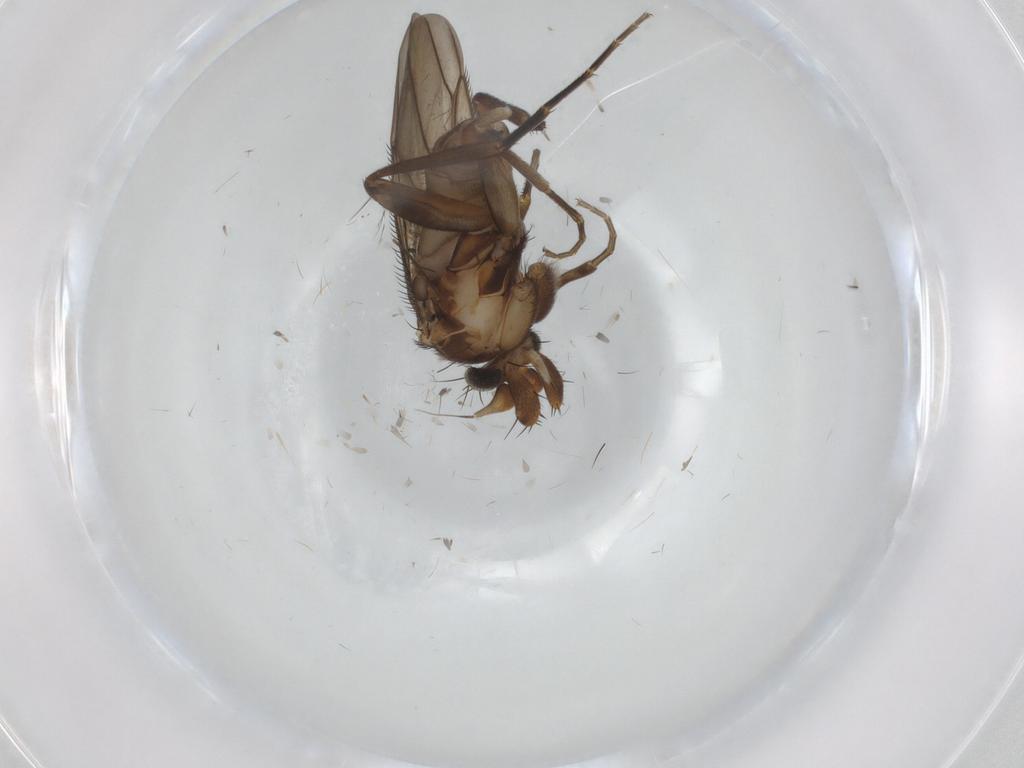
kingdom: Animalia
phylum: Arthropoda
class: Insecta
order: Diptera
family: Phoridae
